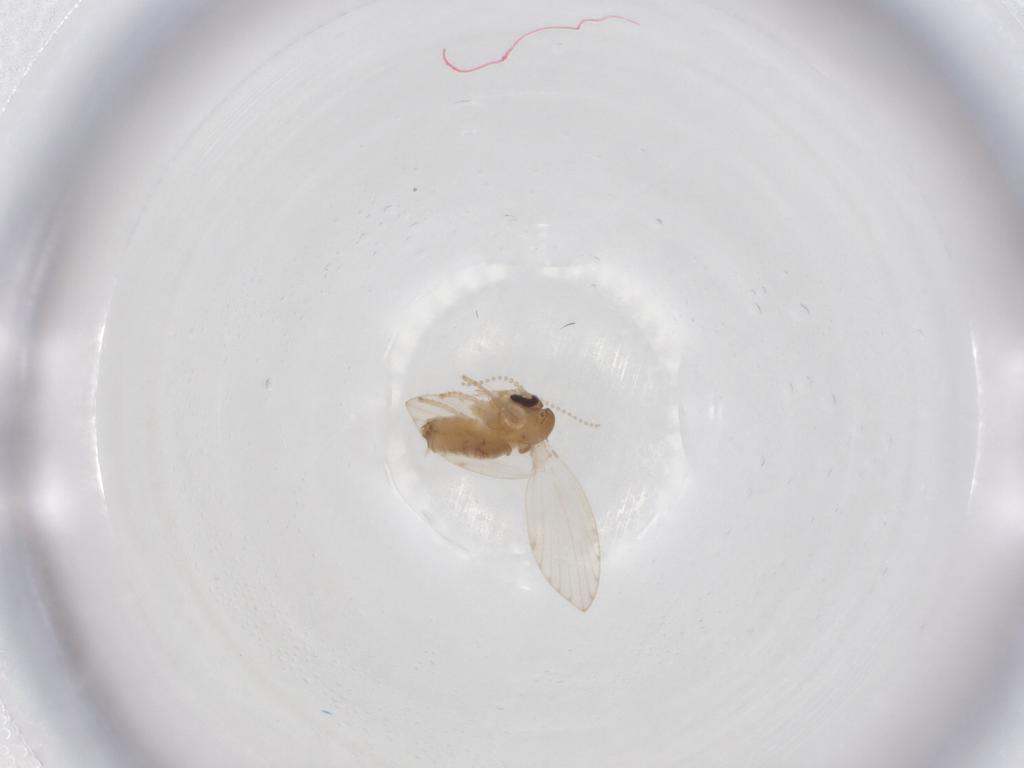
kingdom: Animalia
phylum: Arthropoda
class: Insecta
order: Diptera
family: Psychodidae
